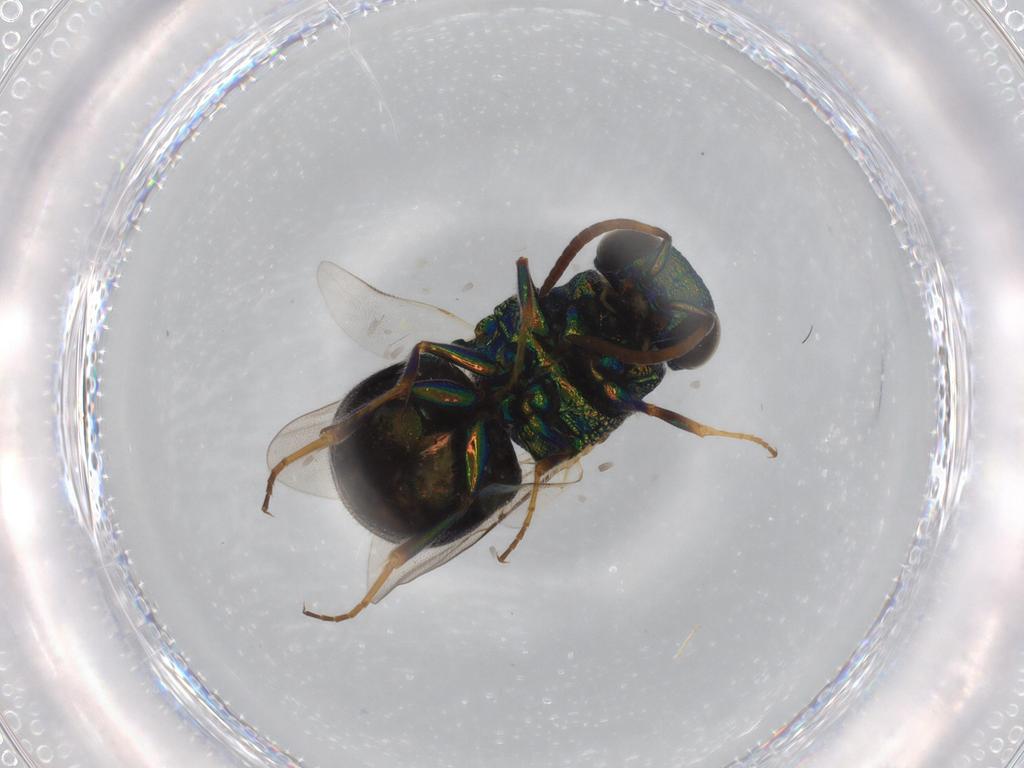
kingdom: Animalia
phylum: Arthropoda
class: Insecta
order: Hymenoptera
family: Chrysididae
